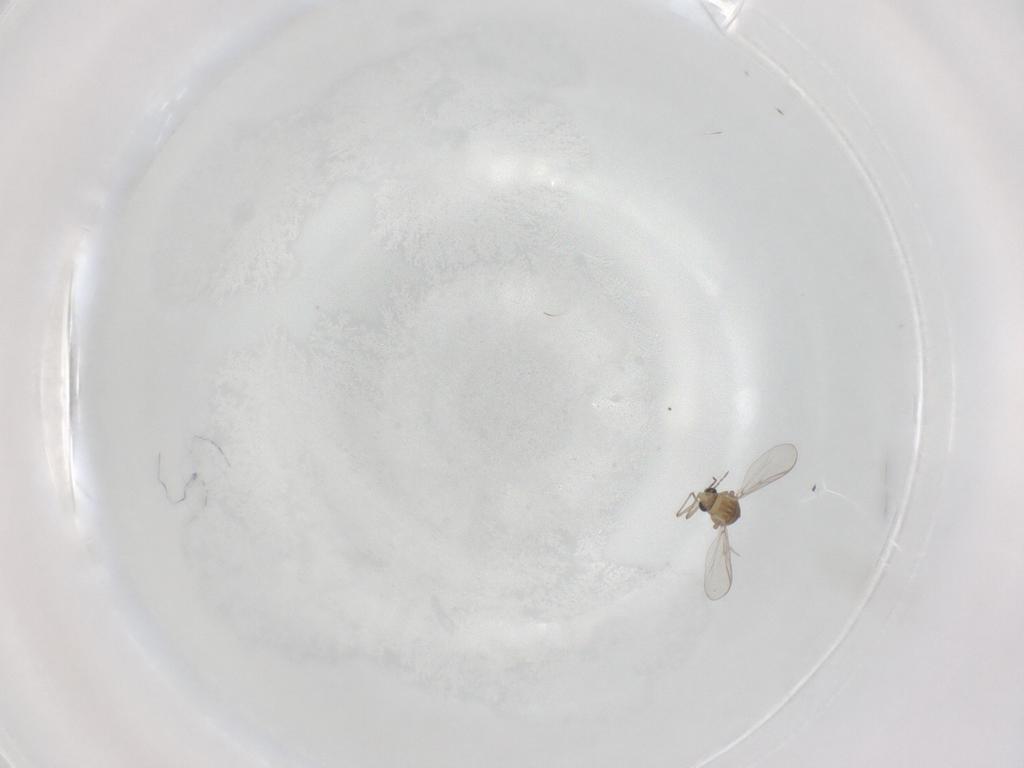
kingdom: Animalia
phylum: Arthropoda
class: Insecta
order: Diptera
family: Chironomidae
